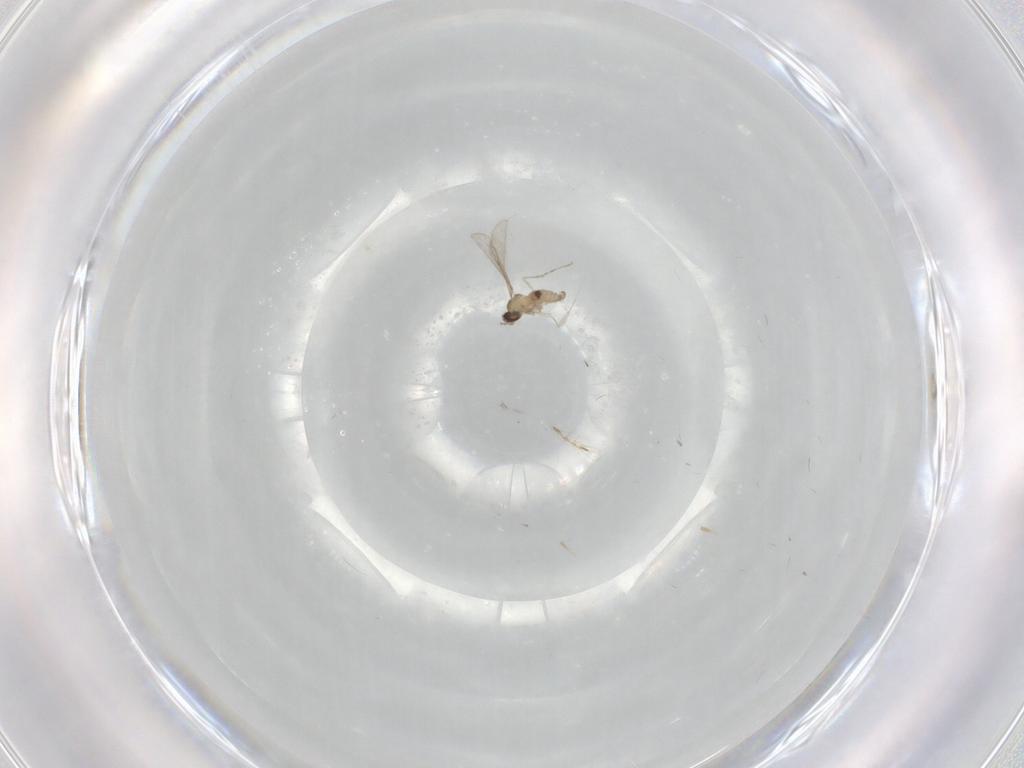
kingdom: Animalia
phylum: Arthropoda
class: Insecta
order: Diptera
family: Cecidomyiidae
